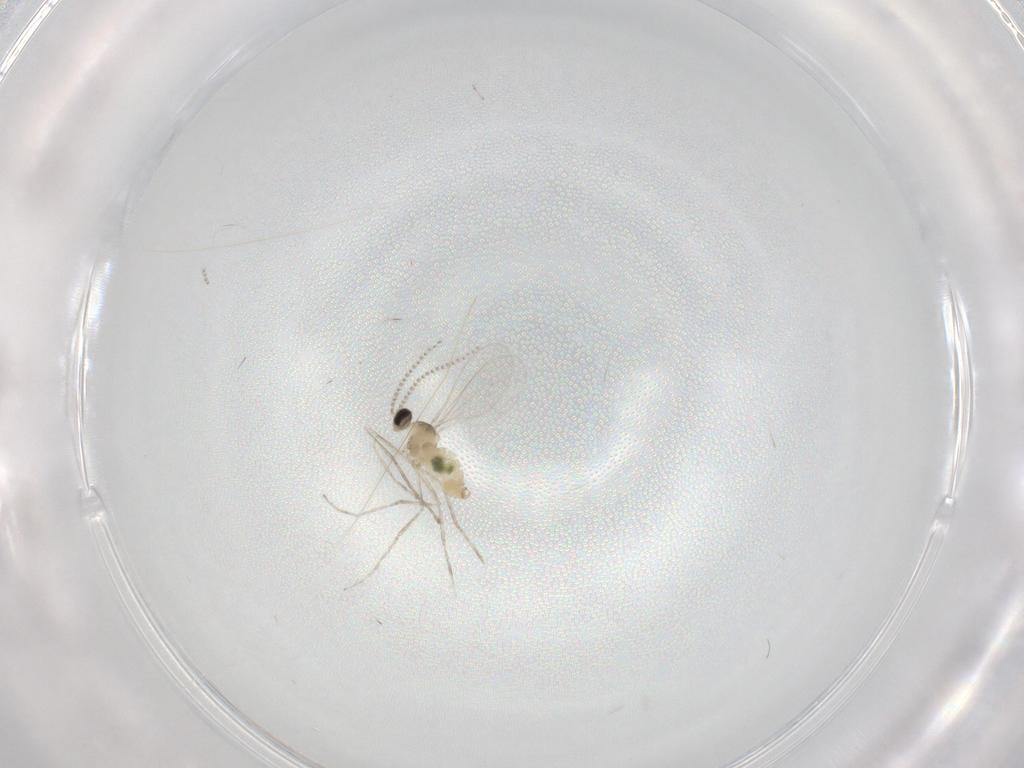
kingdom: Animalia
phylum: Arthropoda
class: Insecta
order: Diptera
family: Cecidomyiidae
